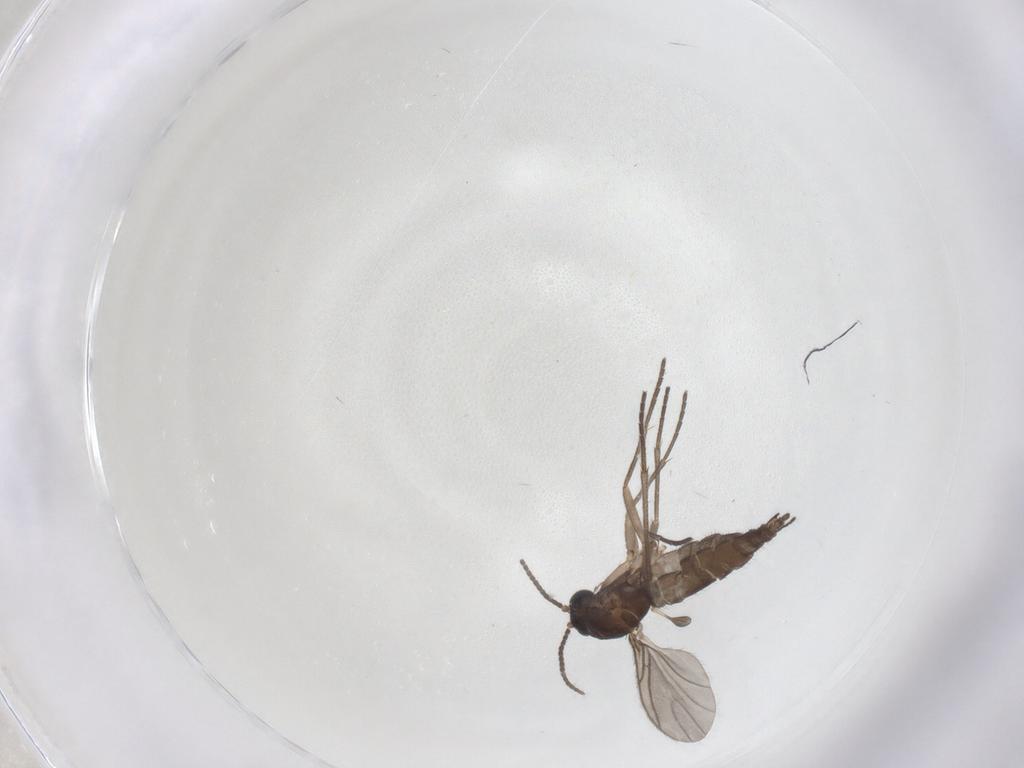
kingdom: Animalia
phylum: Arthropoda
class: Insecta
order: Diptera
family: Sciaridae
